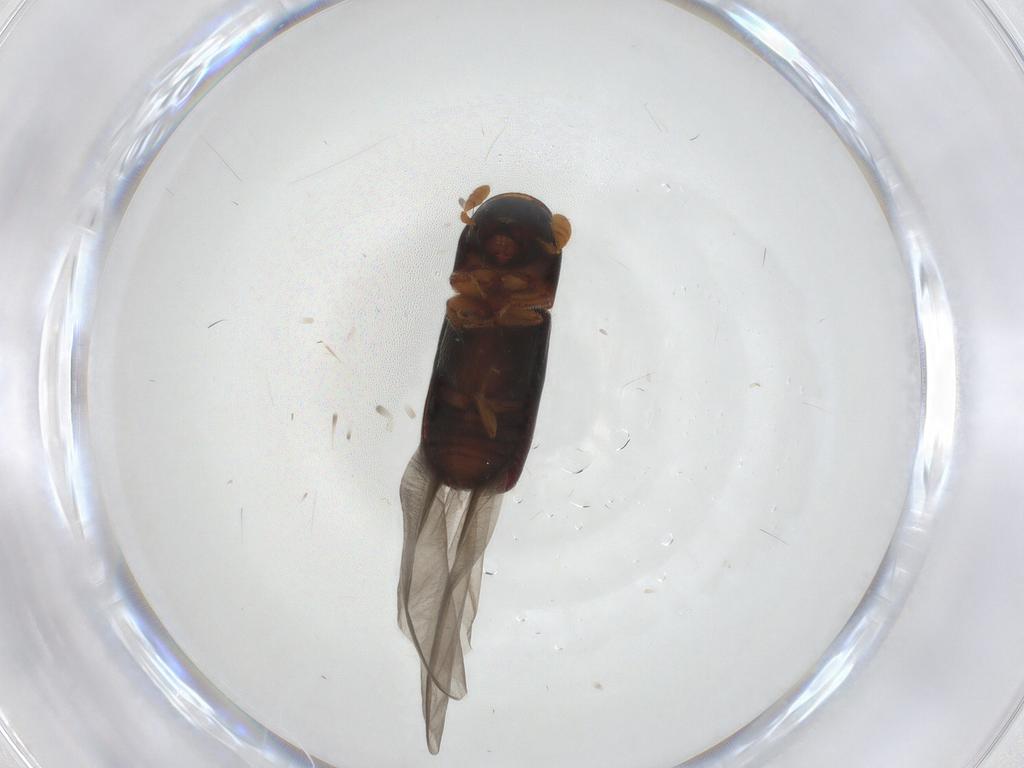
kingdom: Animalia
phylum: Arthropoda
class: Insecta
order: Coleoptera
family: Curculionidae
